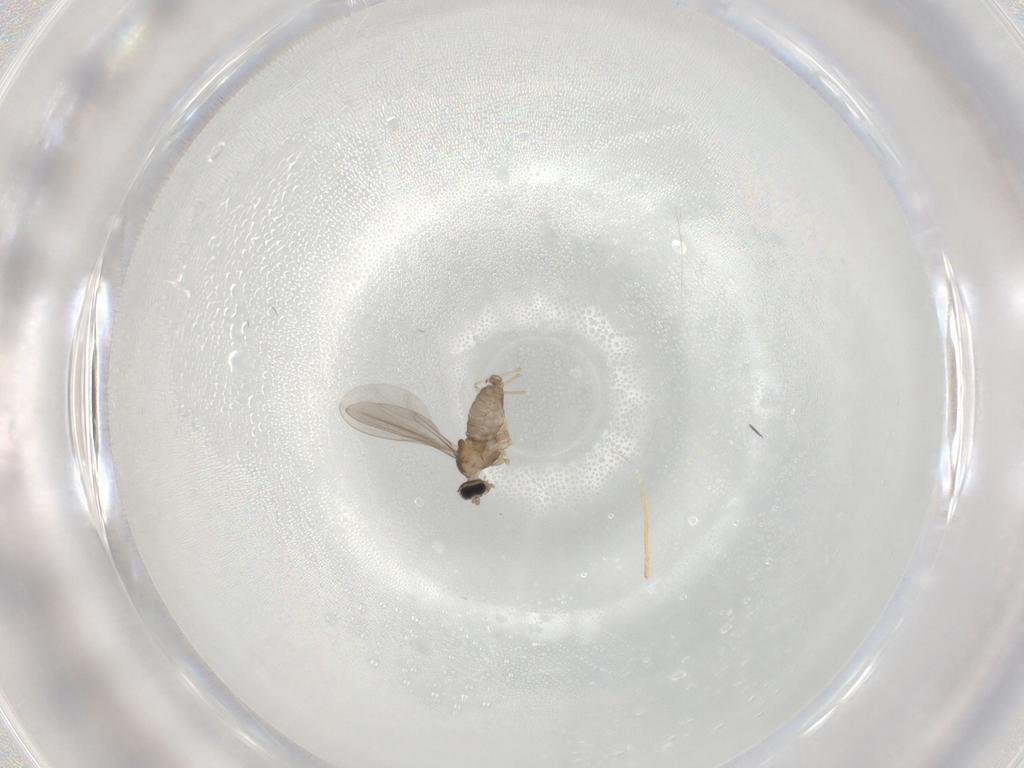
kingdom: Animalia
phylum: Arthropoda
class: Insecta
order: Diptera
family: Cecidomyiidae
